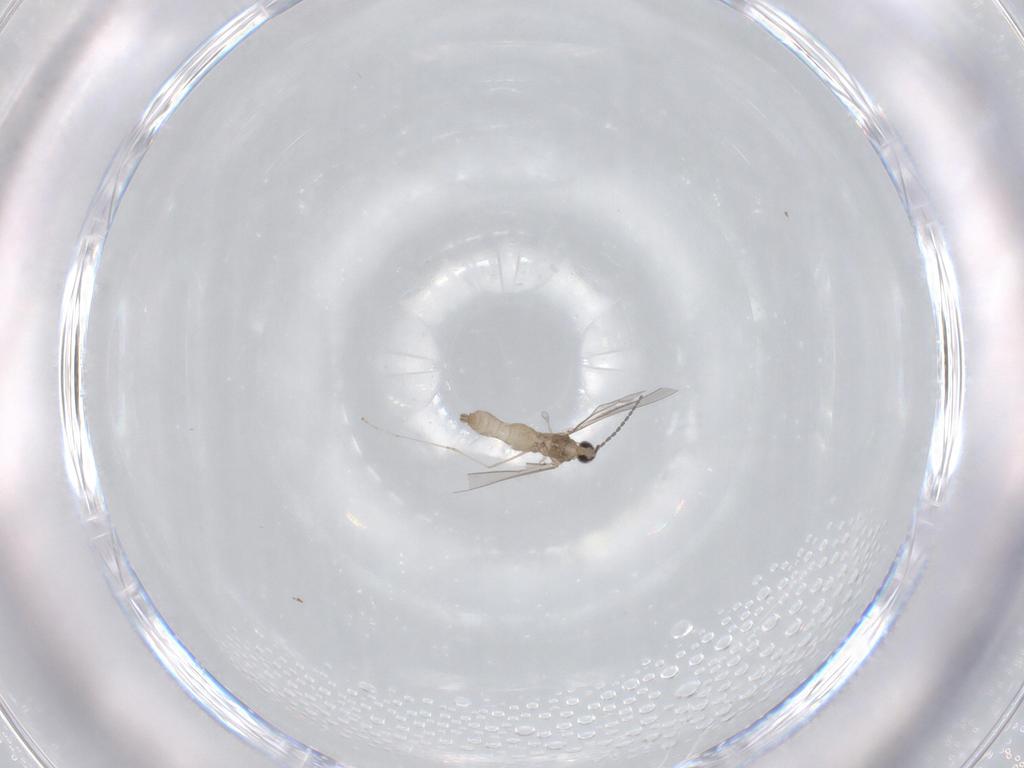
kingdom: Animalia
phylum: Arthropoda
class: Insecta
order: Diptera
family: Cecidomyiidae
